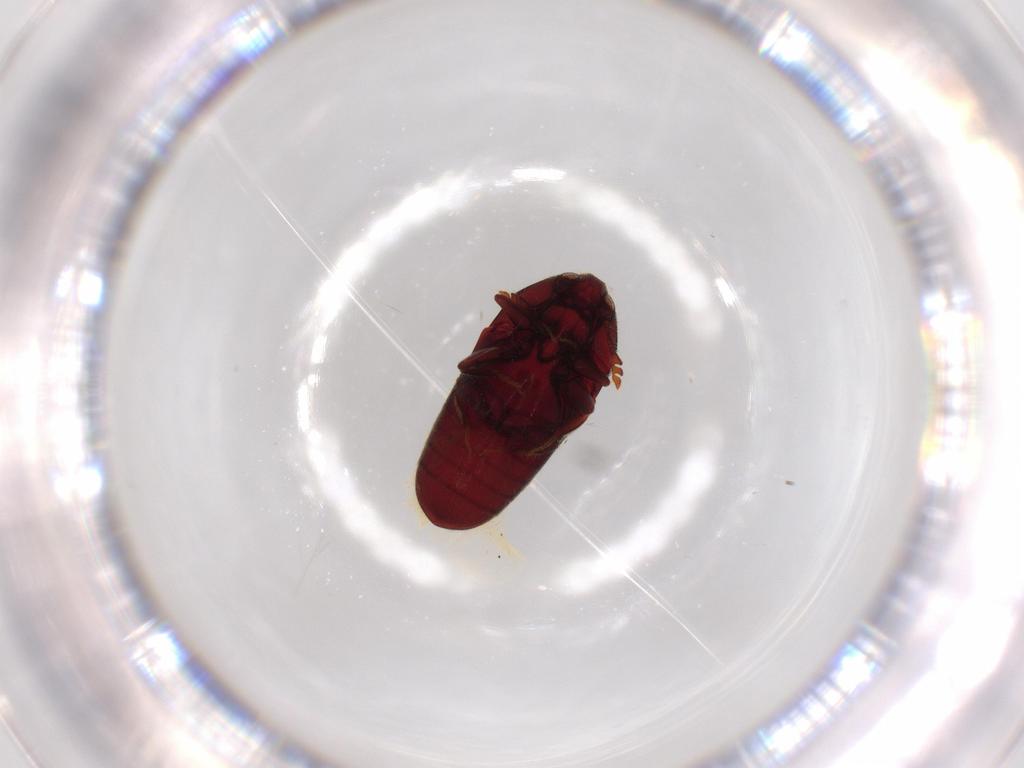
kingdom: Animalia
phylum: Arthropoda
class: Insecta
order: Coleoptera
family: Throscidae
